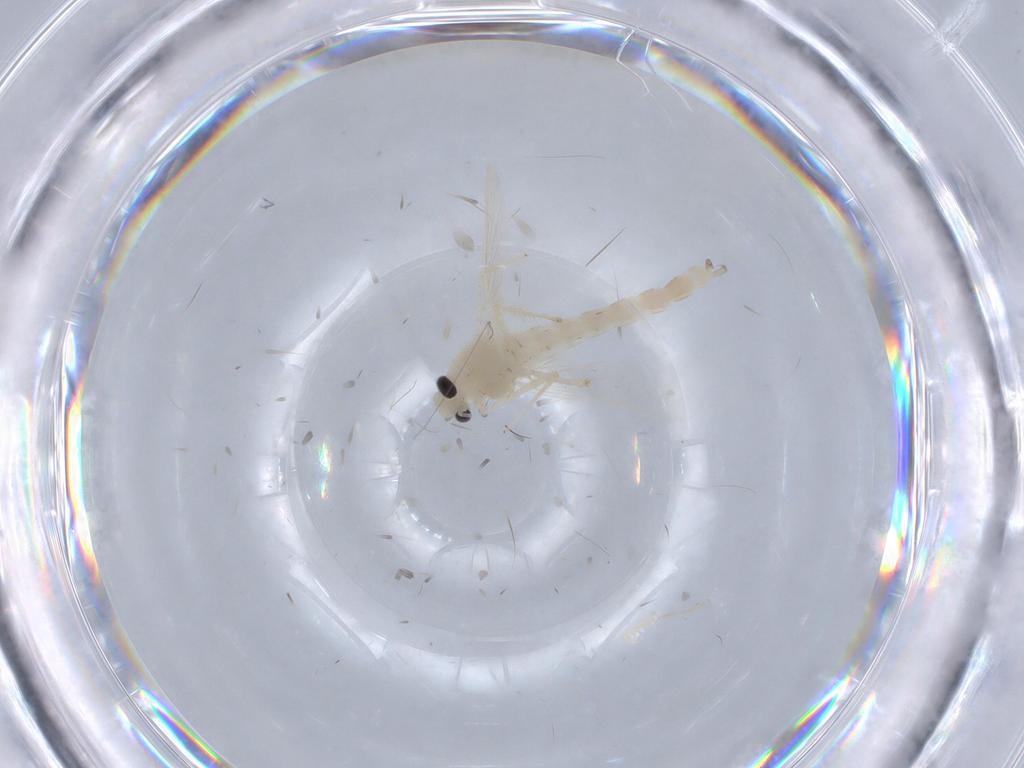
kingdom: Animalia
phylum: Arthropoda
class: Insecta
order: Diptera
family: Chironomidae
